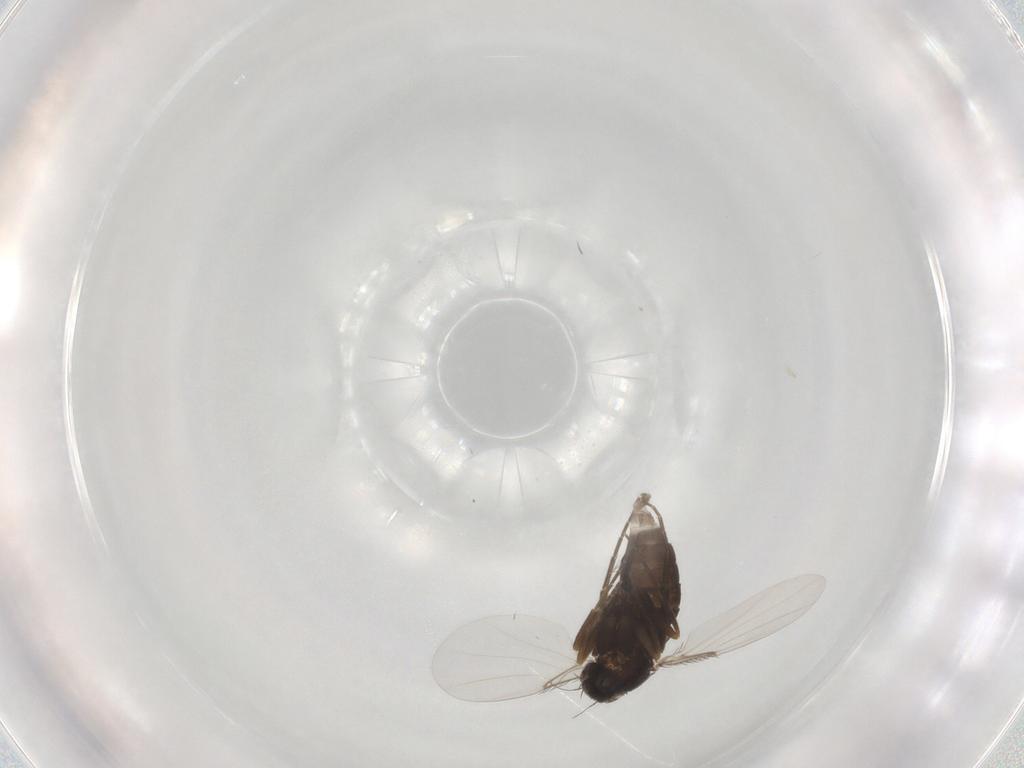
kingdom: Animalia
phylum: Arthropoda
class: Insecta
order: Diptera
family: Phoridae
